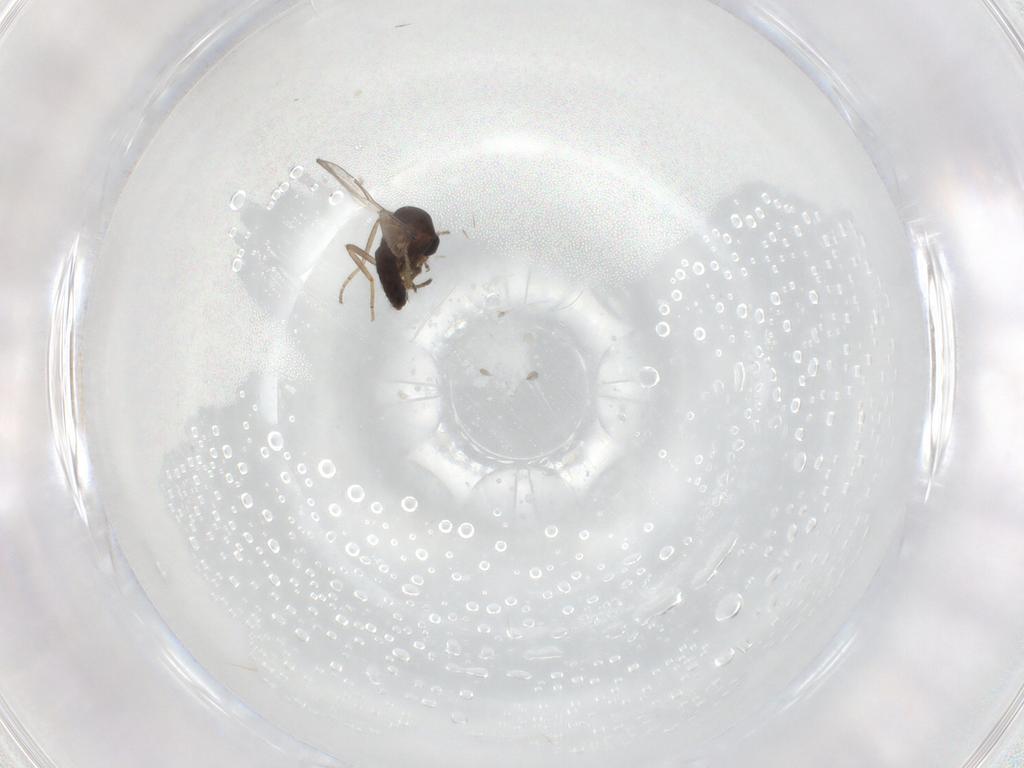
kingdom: Animalia
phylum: Arthropoda
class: Insecta
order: Diptera
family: Ceratopogonidae
